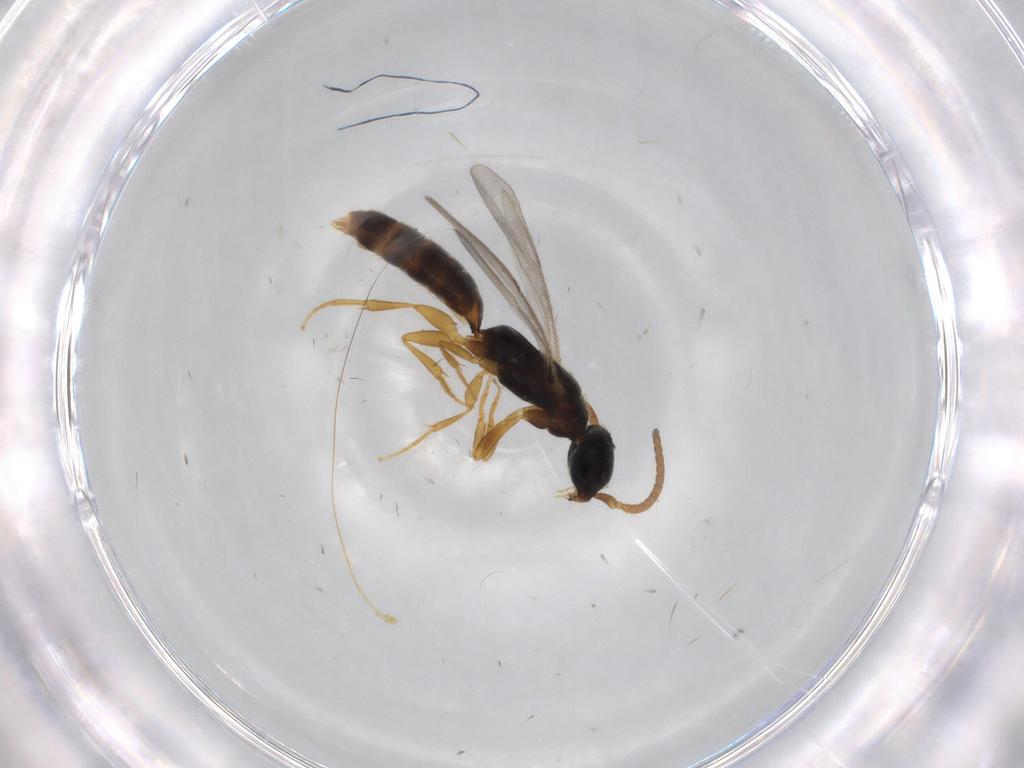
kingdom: Animalia
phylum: Arthropoda
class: Insecta
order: Hymenoptera
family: Bethylidae
